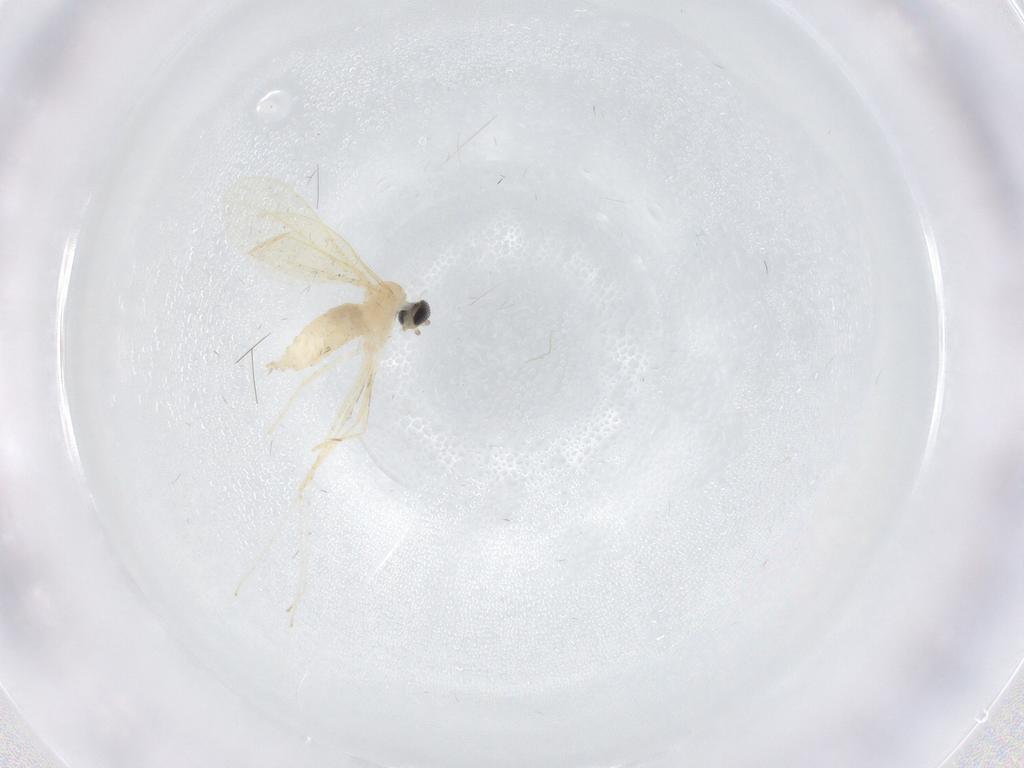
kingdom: Animalia
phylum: Arthropoda
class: Insecta
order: Diptera
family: Cecidomyiidae
